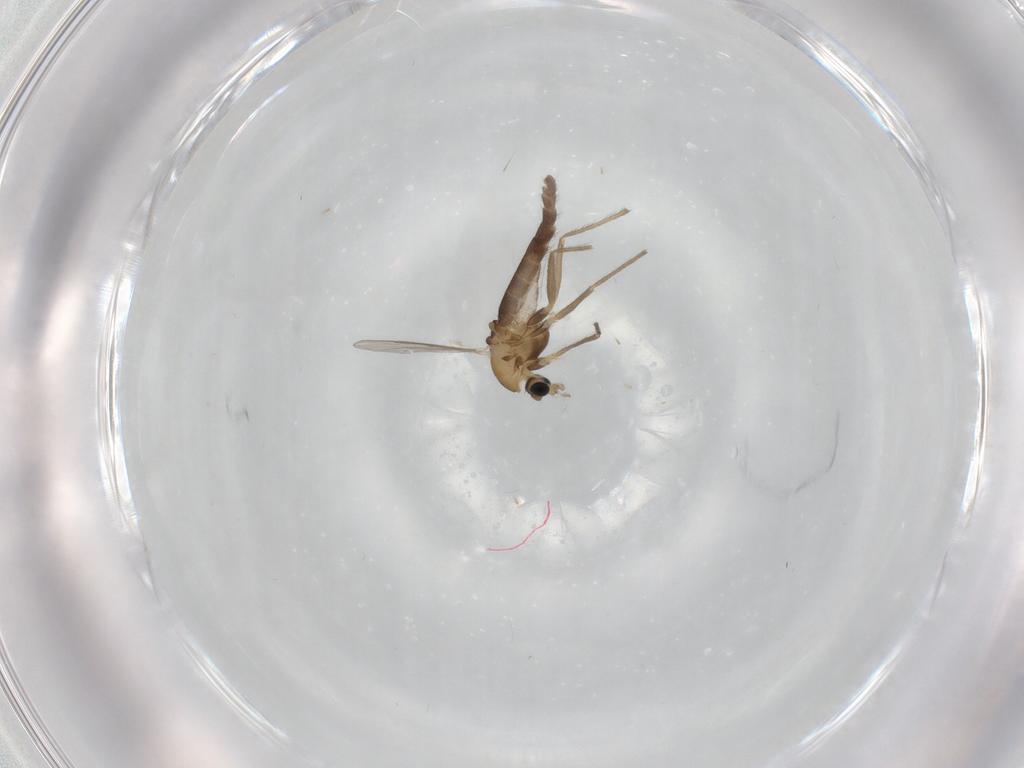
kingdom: Animalia
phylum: Arthropoda
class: Insecta
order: Diptera
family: Chironomidae
